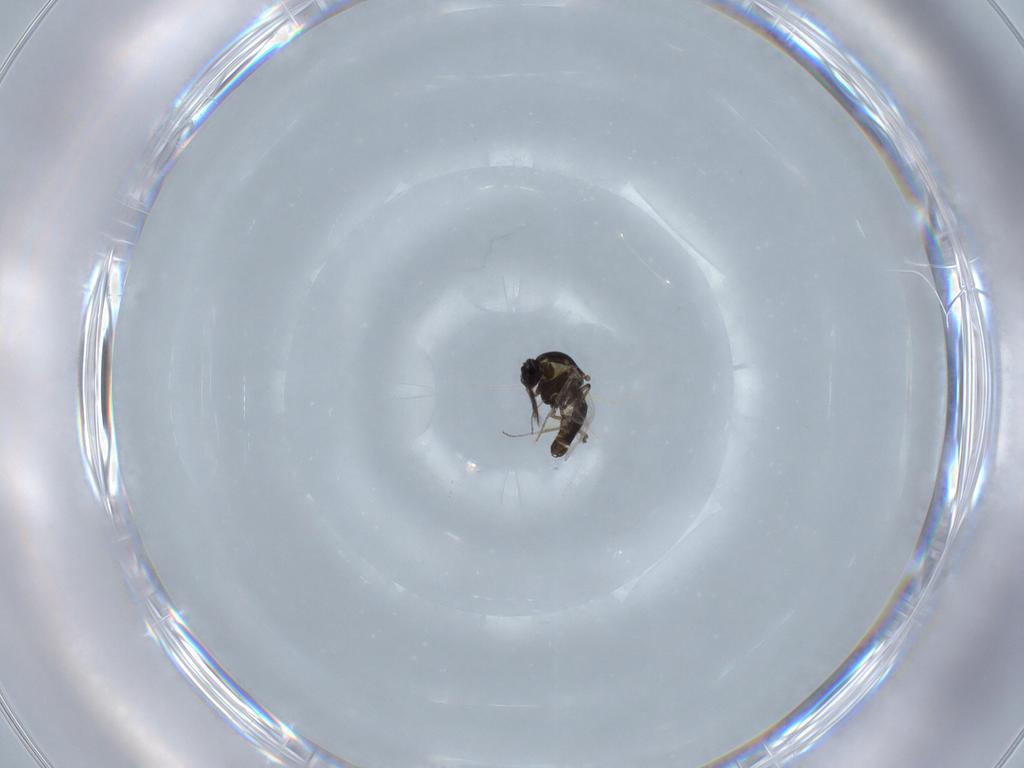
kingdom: Animalia
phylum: Arthropoda
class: Insecta
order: Diptera
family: Ceratopogonidae
